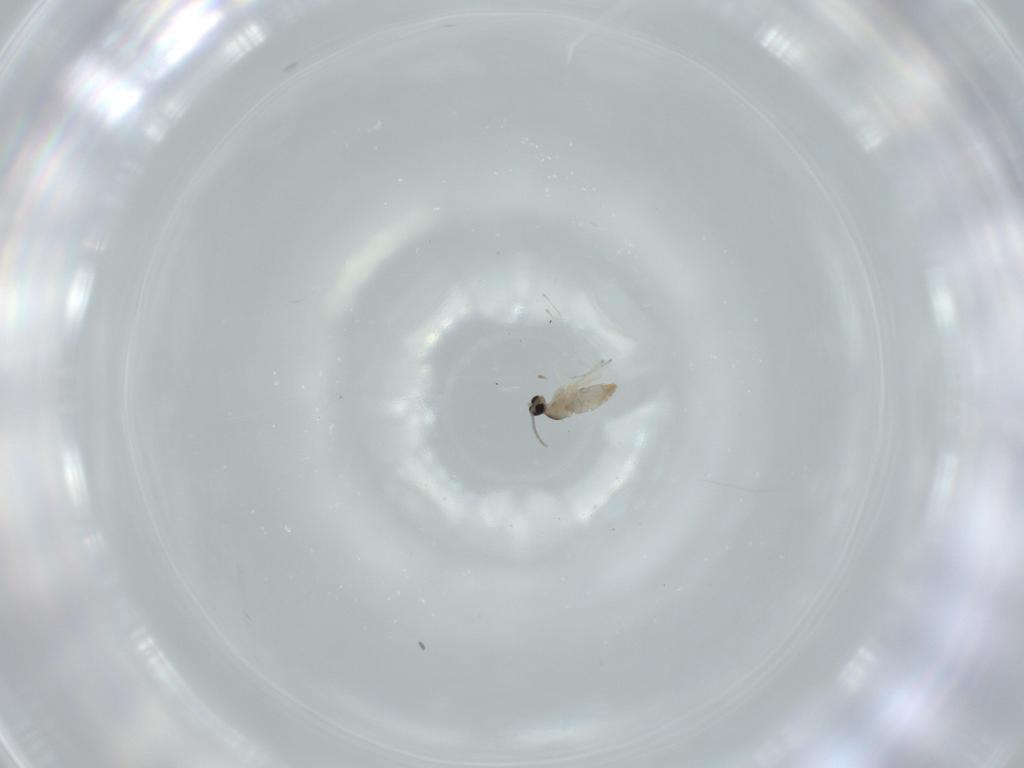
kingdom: Animalia
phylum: Arthropoda
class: Insecta
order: Diptera
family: Cecidomyiidae
